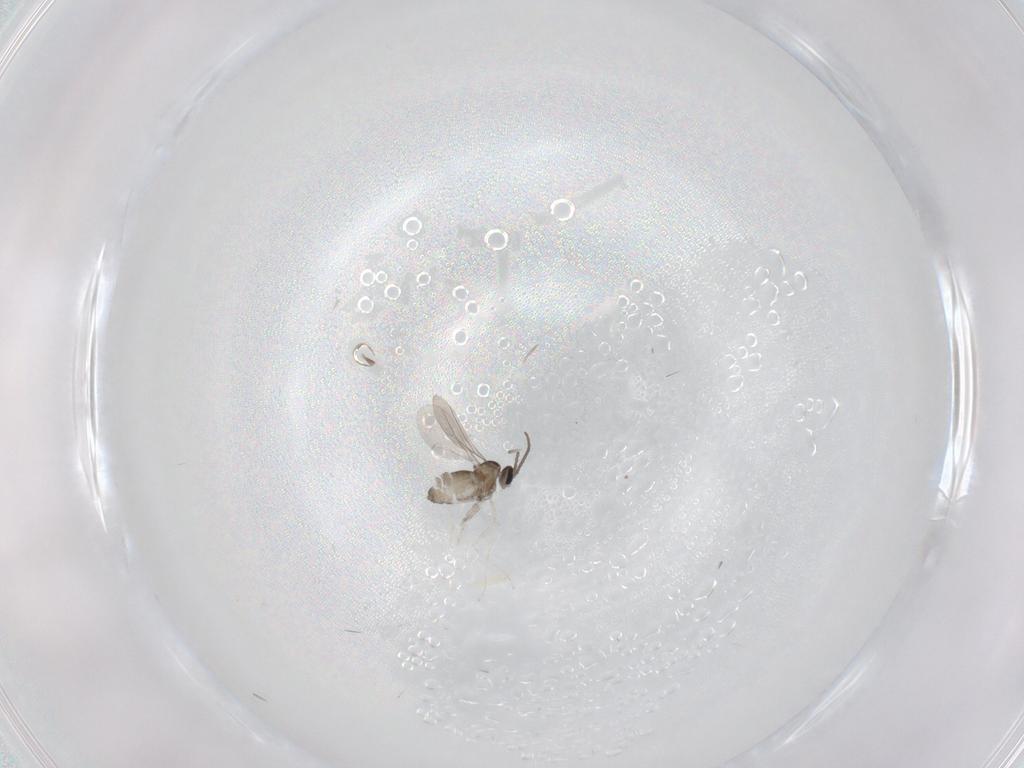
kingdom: Animalia
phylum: Arthropoda
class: Insecta
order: Diptera
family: Cecidomyiidae
